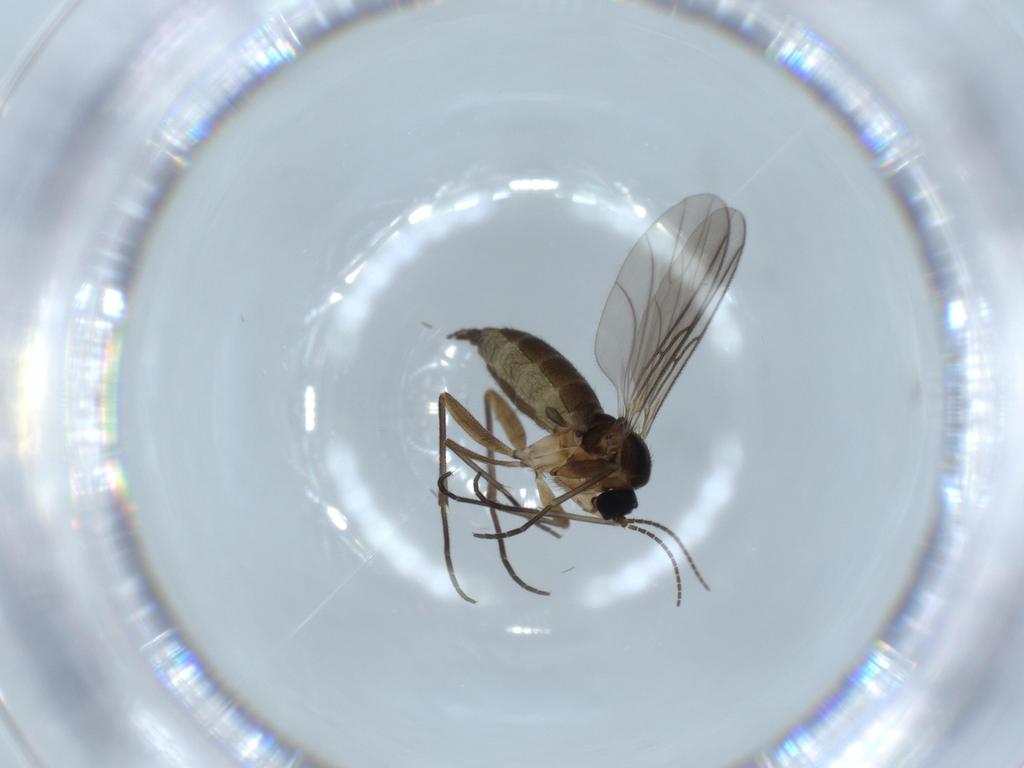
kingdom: Animalia
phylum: Arthropoda
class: Insecta
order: Diptera
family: Sciaridae
